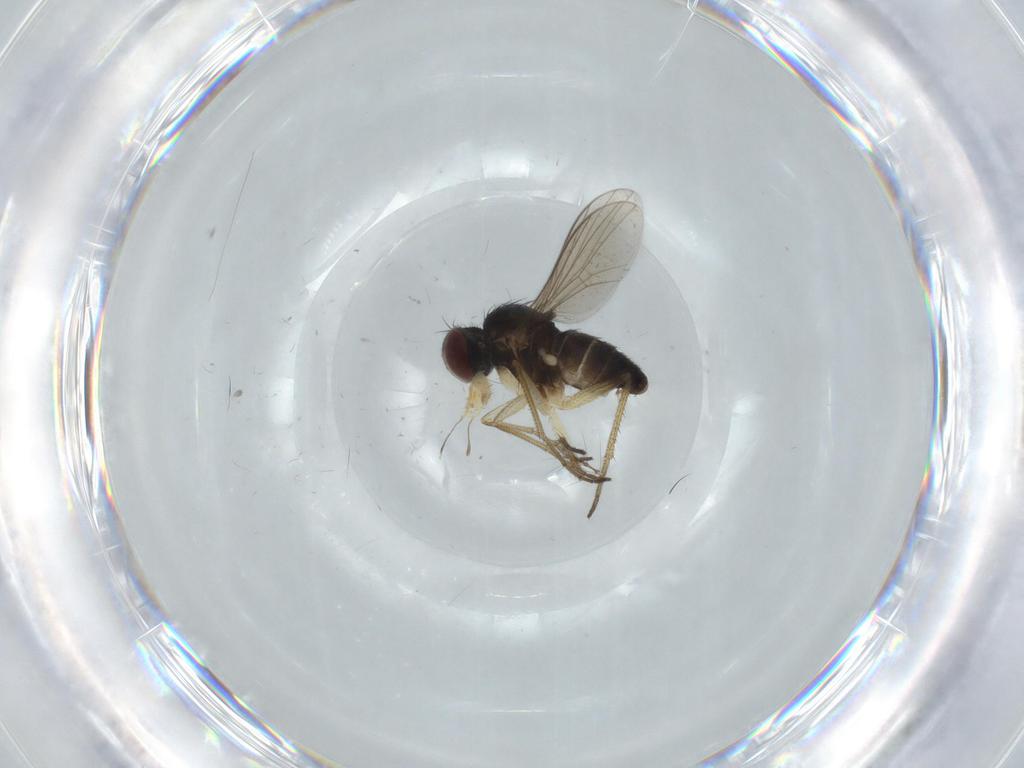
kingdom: Animalia
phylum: Arthropoda
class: Insecta
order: Diptera
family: Dolichopodidae
